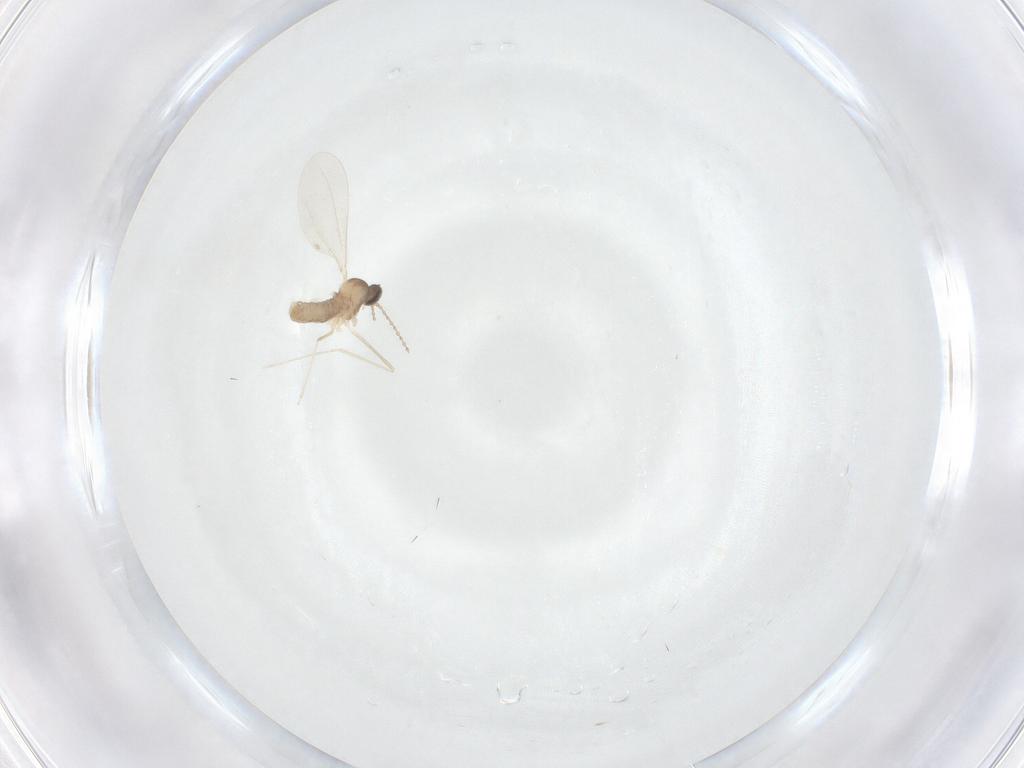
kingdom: Animalia
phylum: Arthropoda
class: Insecta
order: Diptera
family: Cecidomyiidae
